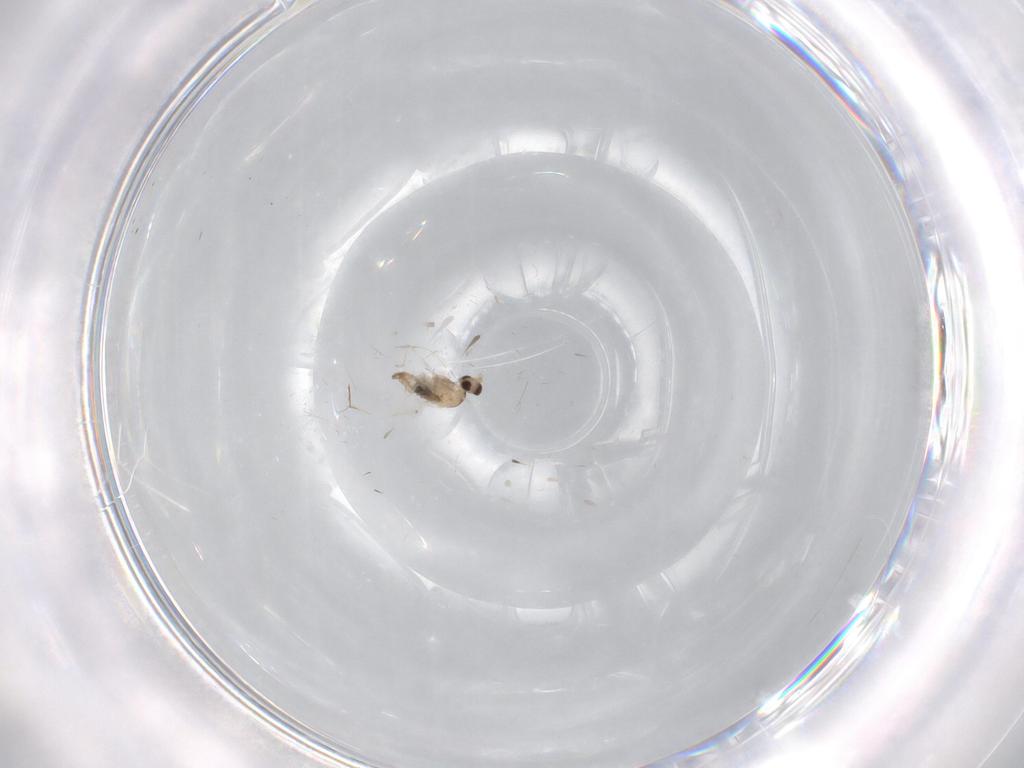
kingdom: Animalia
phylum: Arthropoda
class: Insecta
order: Diptera
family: Cecidomyiidae
